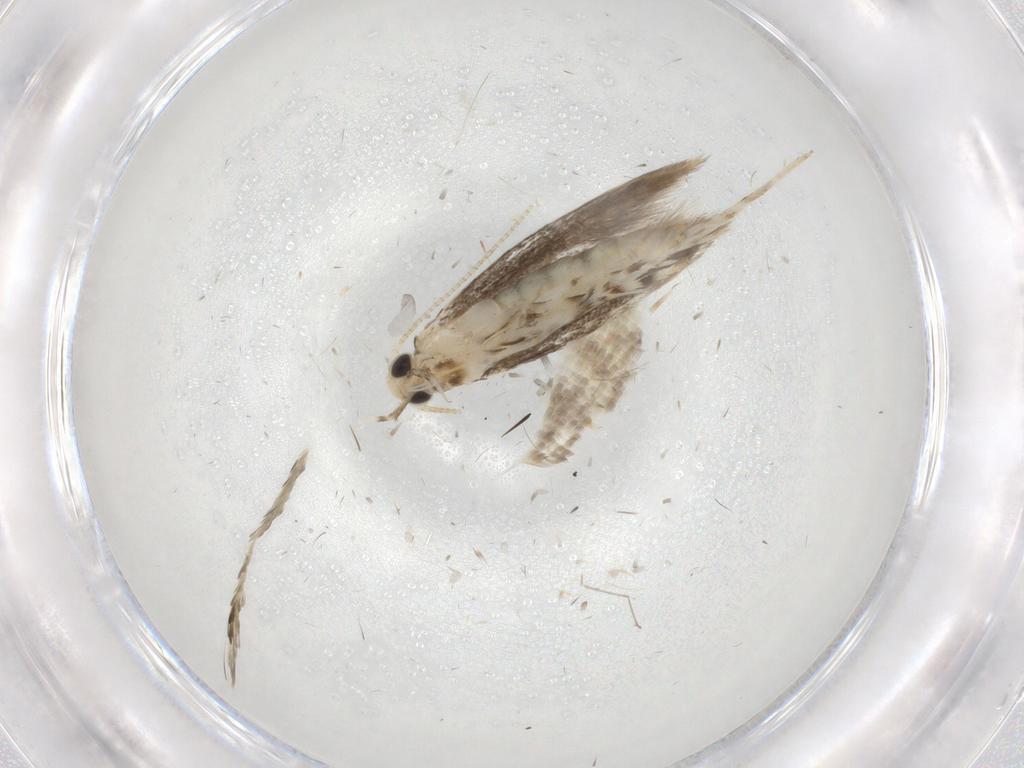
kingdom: Animalia
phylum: Arthropoda
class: Insecta
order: Lepidoptera
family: Gracillariidae
